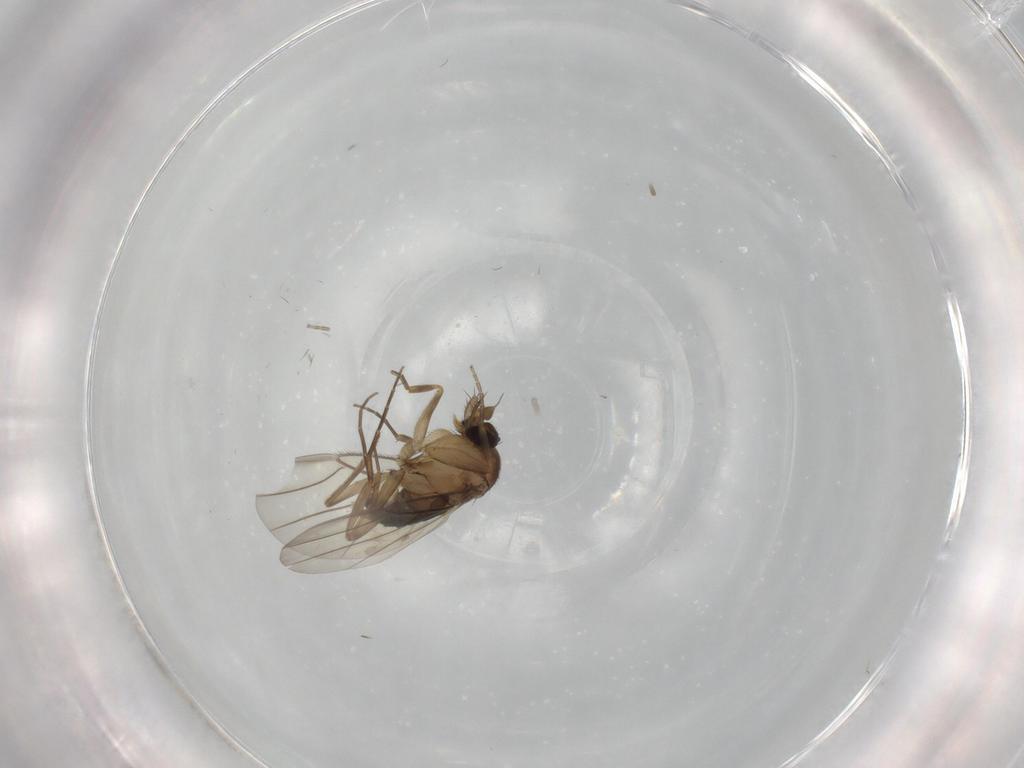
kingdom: Animalia
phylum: Arthropoda
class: Insecta
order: Diptera
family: Phoridae
